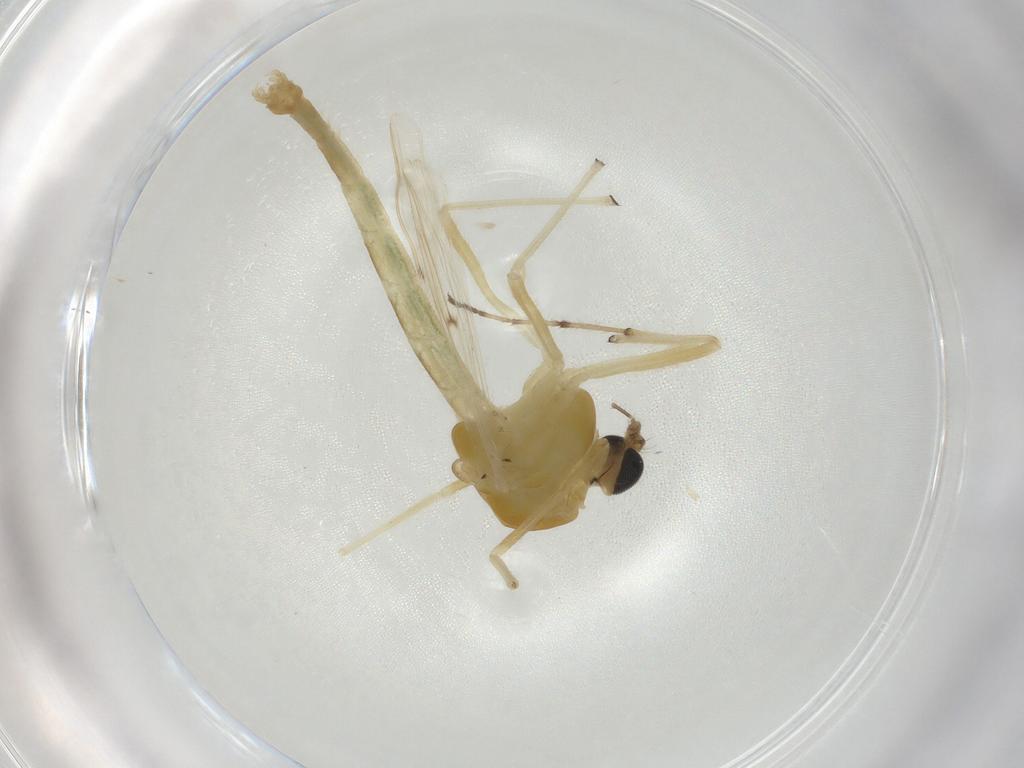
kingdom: Animalia
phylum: Arthropoda
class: Insecta
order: Diptera
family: Chironomidae
